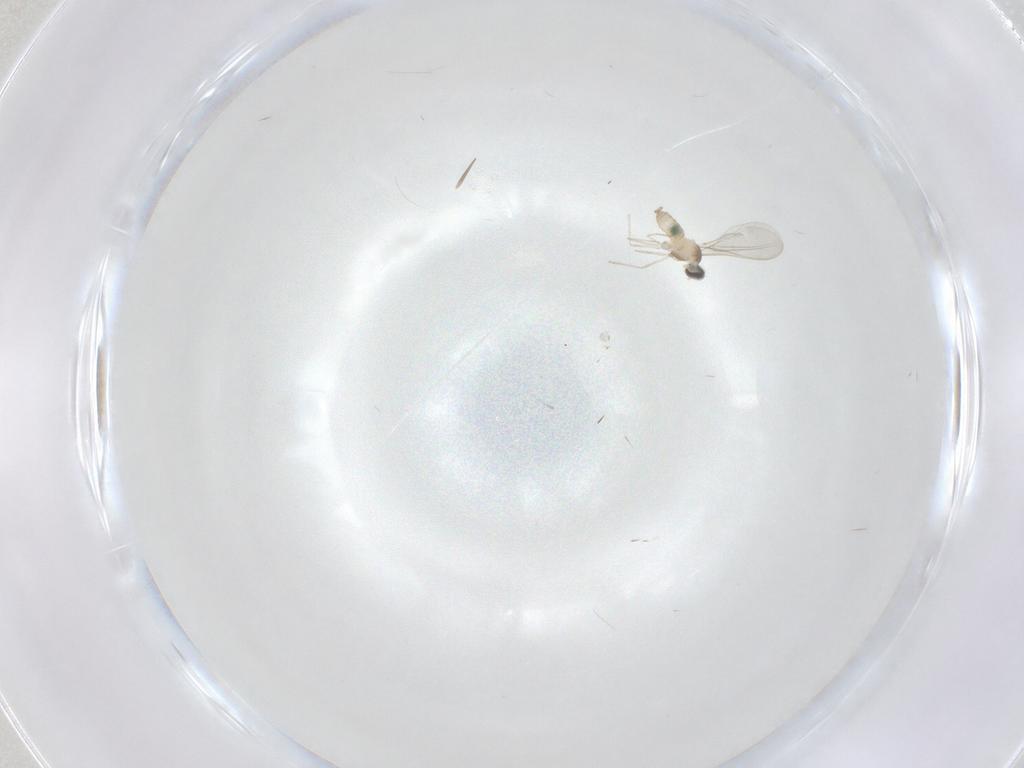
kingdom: Animalia
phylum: Arthropoda
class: Insecta
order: Diptera
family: Cecidomyiidae
